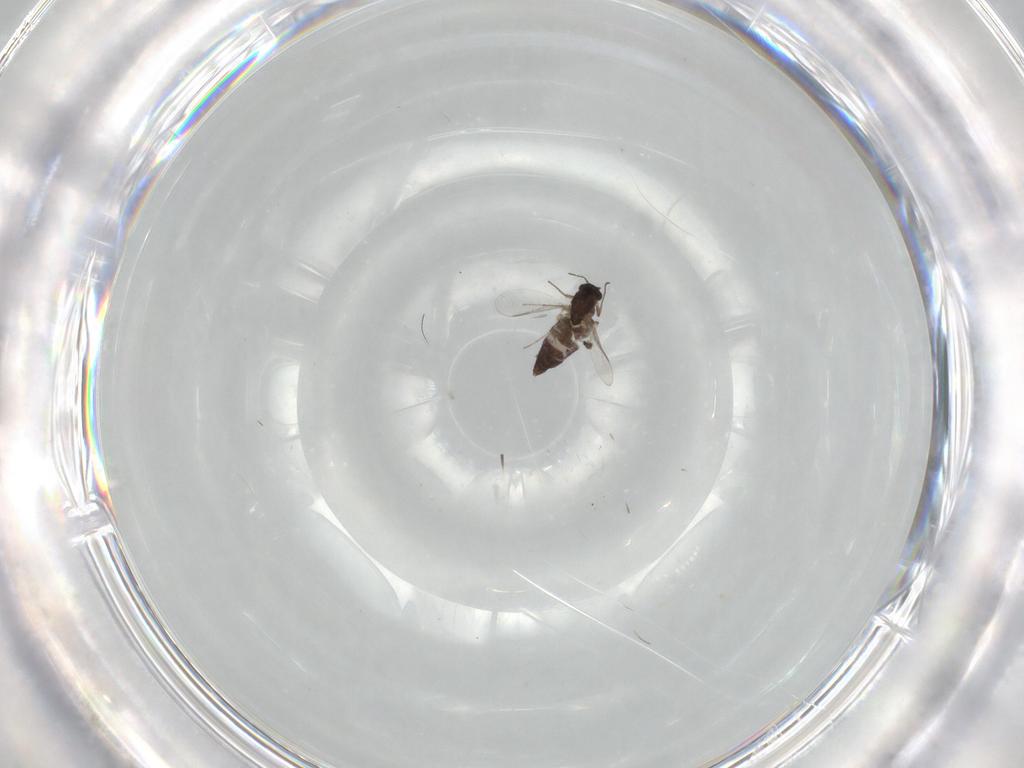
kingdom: Animalia
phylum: Arthropoda
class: Insecta
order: Diptera
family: Chironomidae
